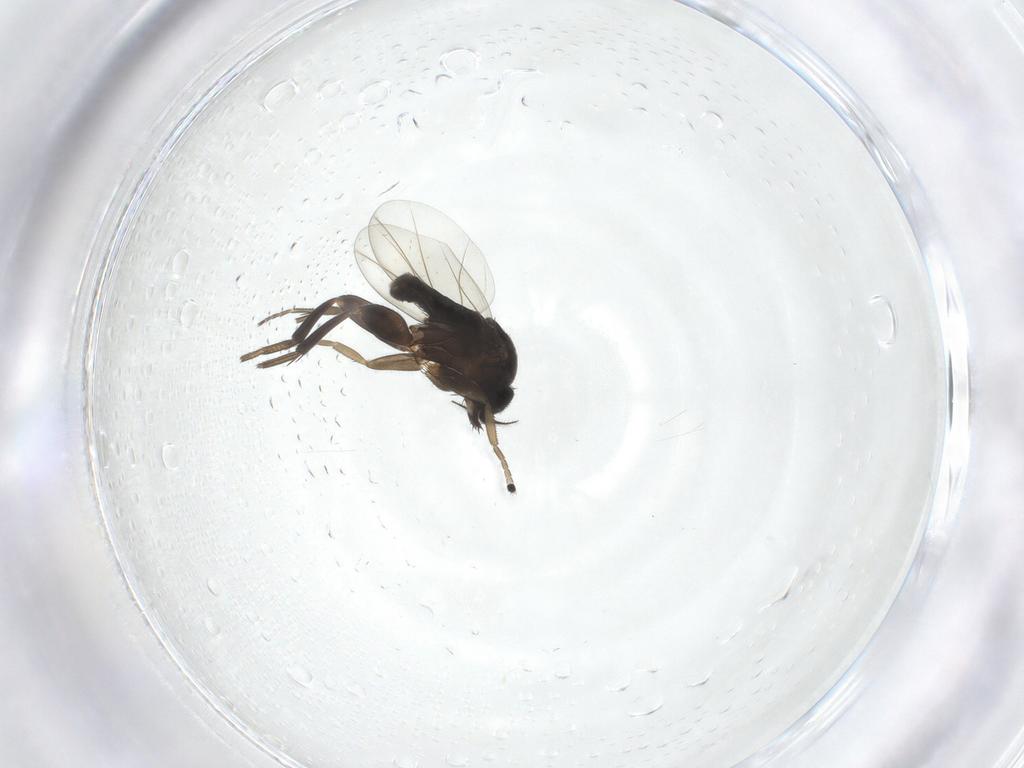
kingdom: Animalia
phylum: Arthropoda
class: Insecta
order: Diptera
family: Phoridae
